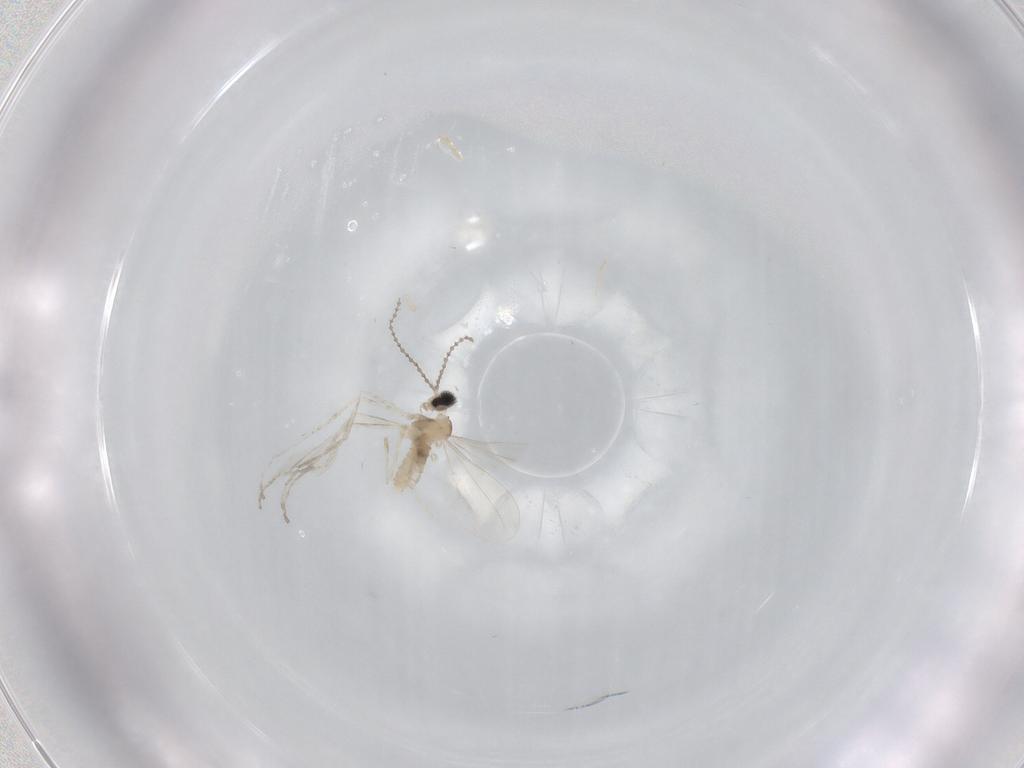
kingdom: Animalia
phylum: Arthropoda
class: Insecta
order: Diptera
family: Cecidomyiidae
